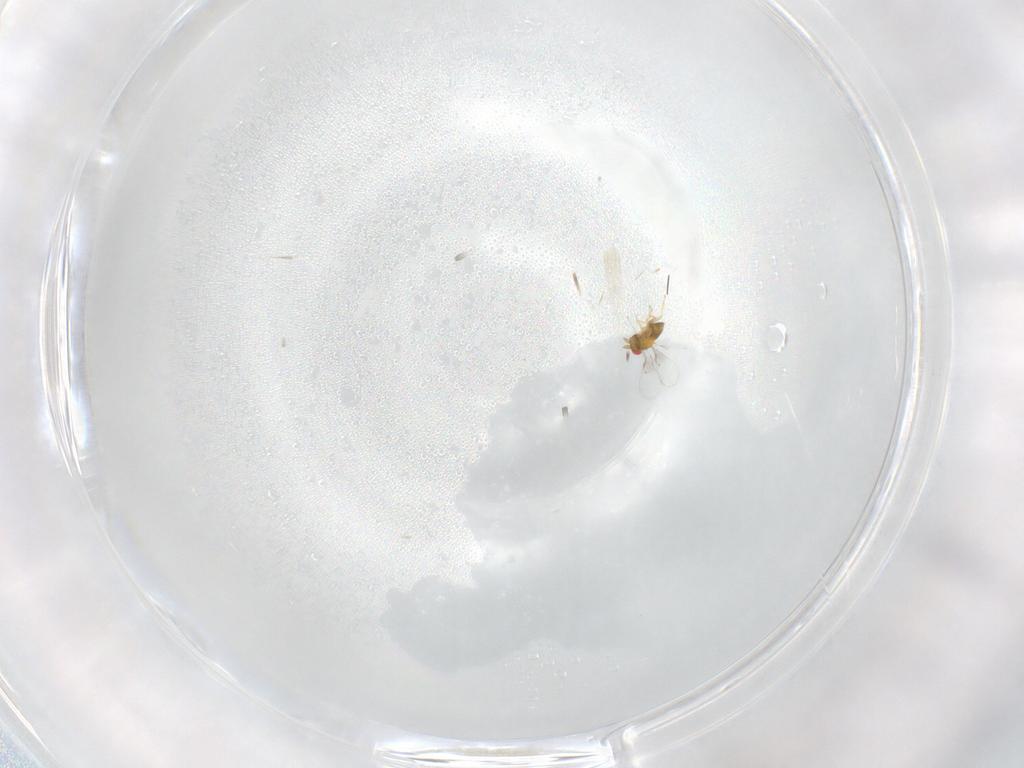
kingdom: Animalia
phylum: Arthropoda
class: Insecta
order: Hymenoptera
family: Trichogrammatidae
